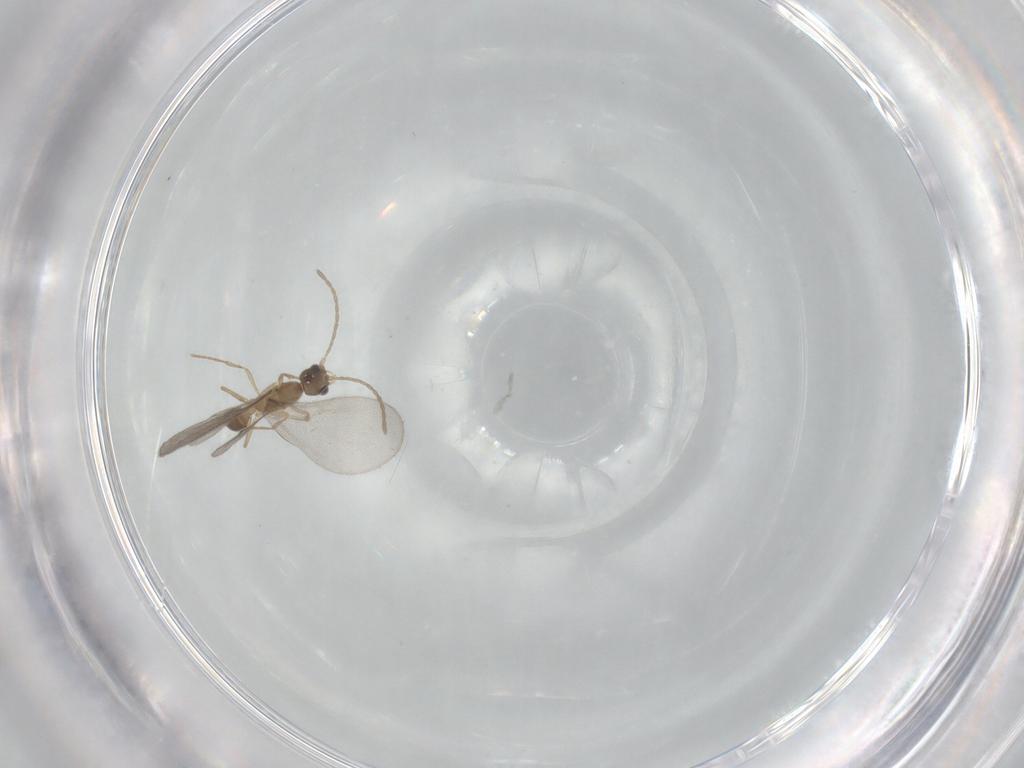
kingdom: Animalia
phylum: Arthropoda
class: Insecta
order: Hymenoptera
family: Formicidae
